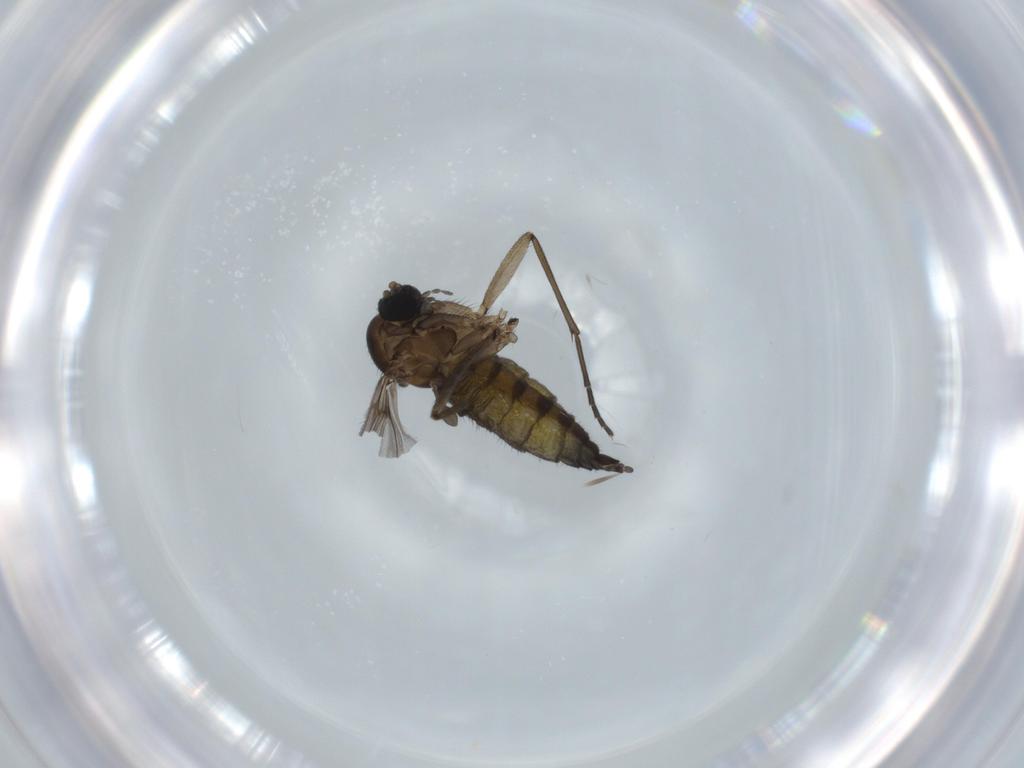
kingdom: Animalia
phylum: Arthropoda
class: Insecta
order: Diptera
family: Sciaridae
